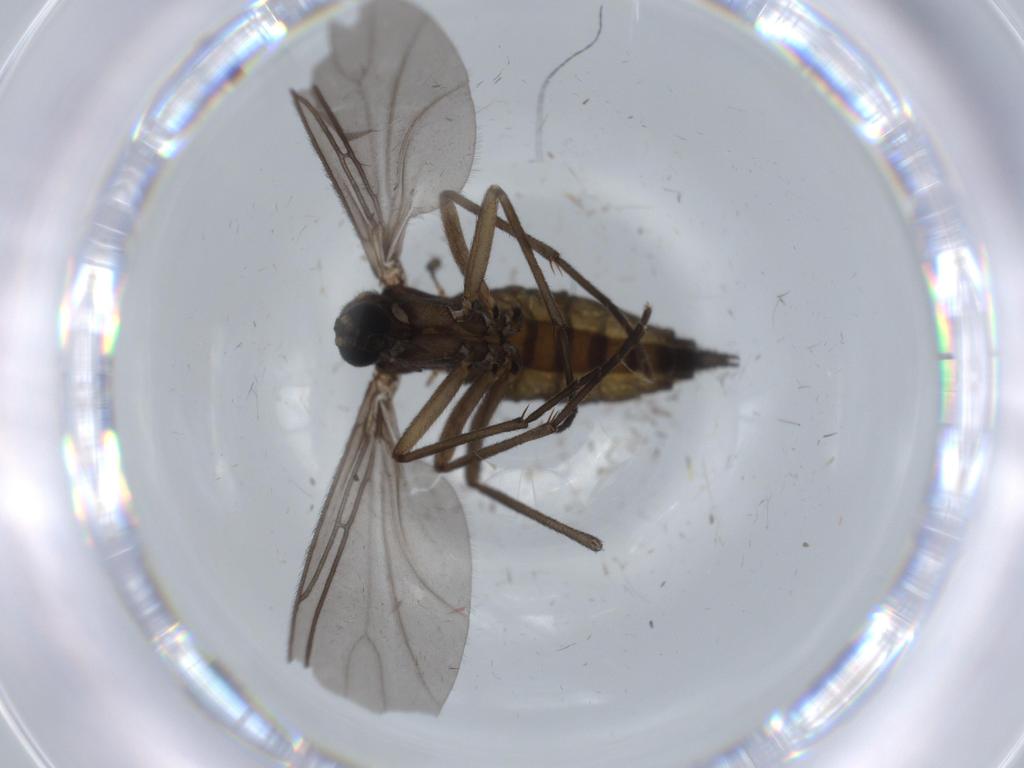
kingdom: Animalia
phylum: Arthropoda
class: Insecta
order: Diptera
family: Sciaridae
